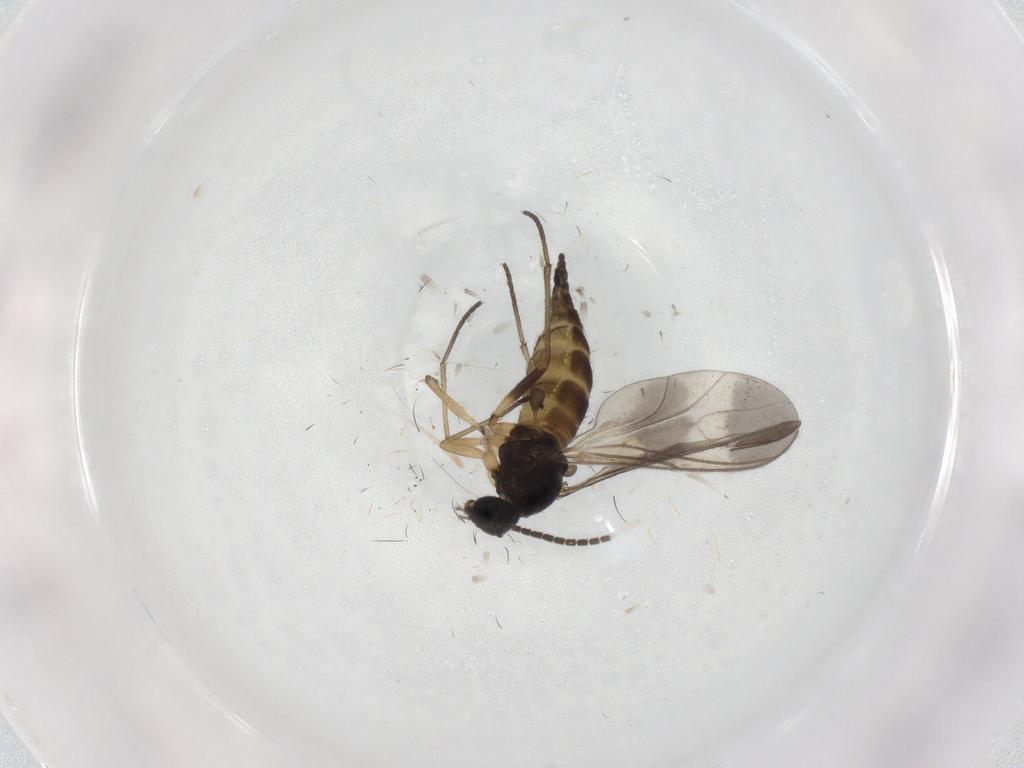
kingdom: Animalia
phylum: Arthropoda
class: Insecta
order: Diptera
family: Sciaridae
